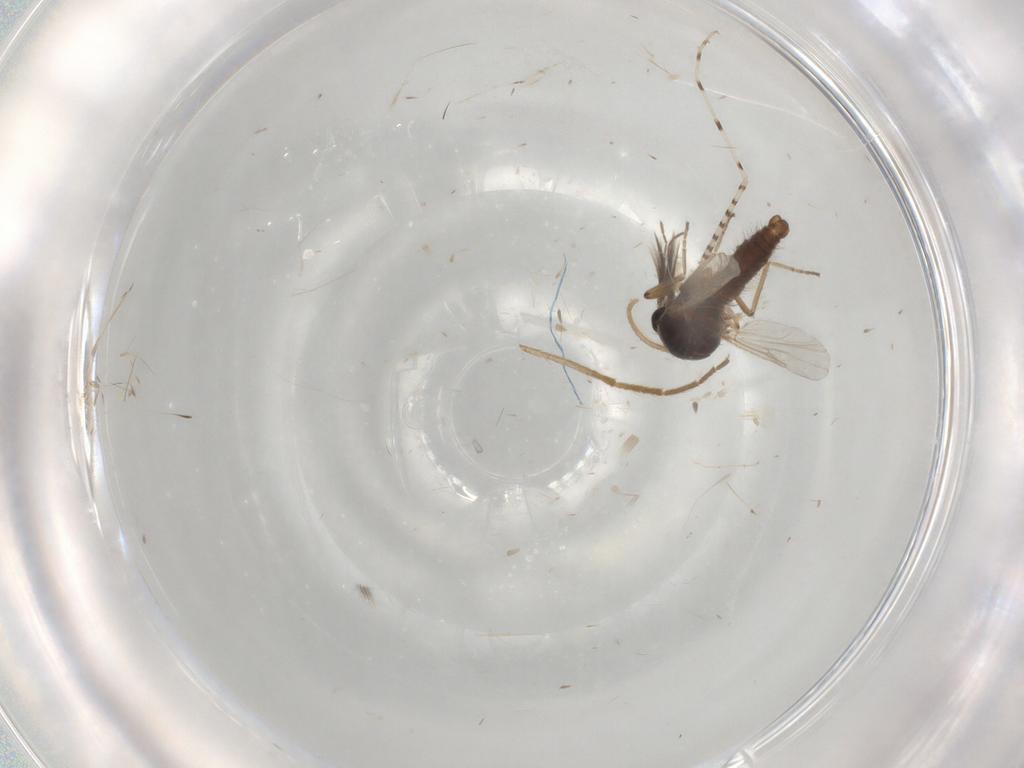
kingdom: Animalia
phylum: Arthropoda
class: Insecta
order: Diptera
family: Ceratopogonidae
